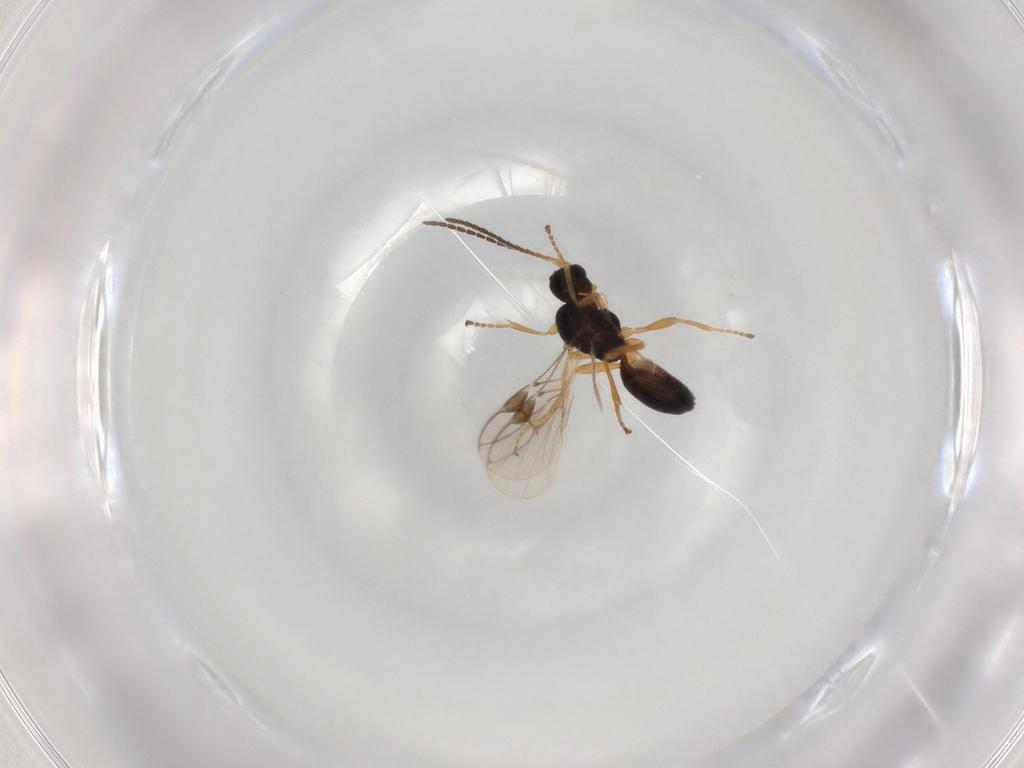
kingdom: Animalia
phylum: Arthropoda
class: Insecta
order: Hymenoptera
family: Braconidae
